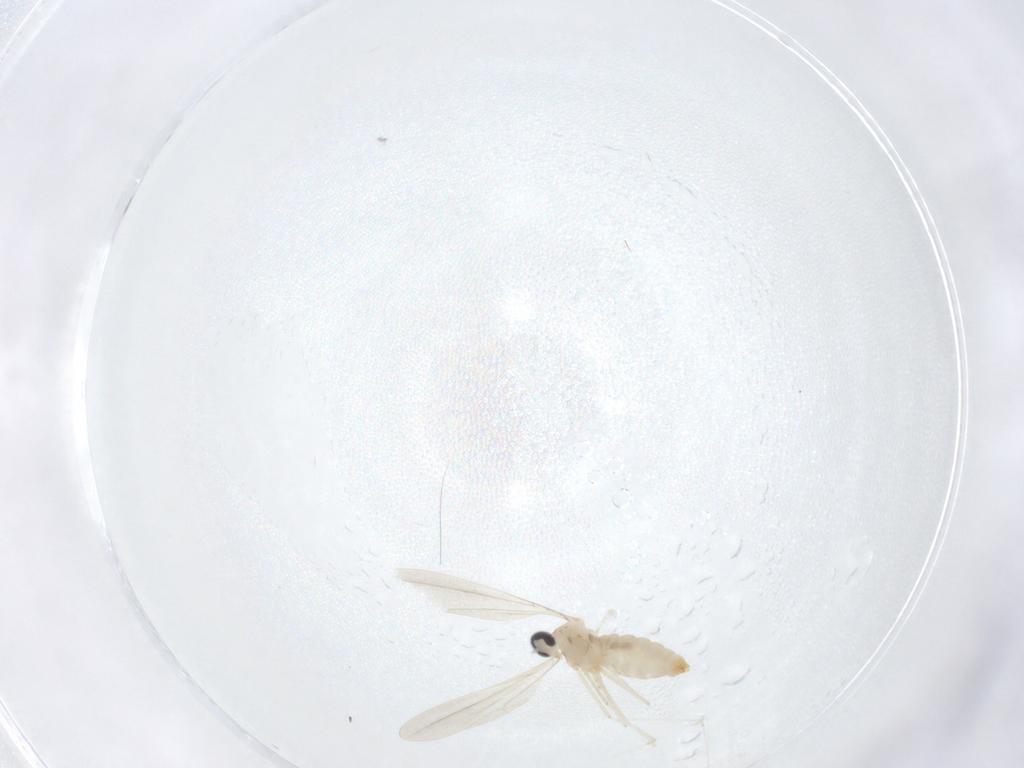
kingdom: Animalia
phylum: Arthropoda
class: Insecta
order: Diptera
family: Cecidomyiidae
